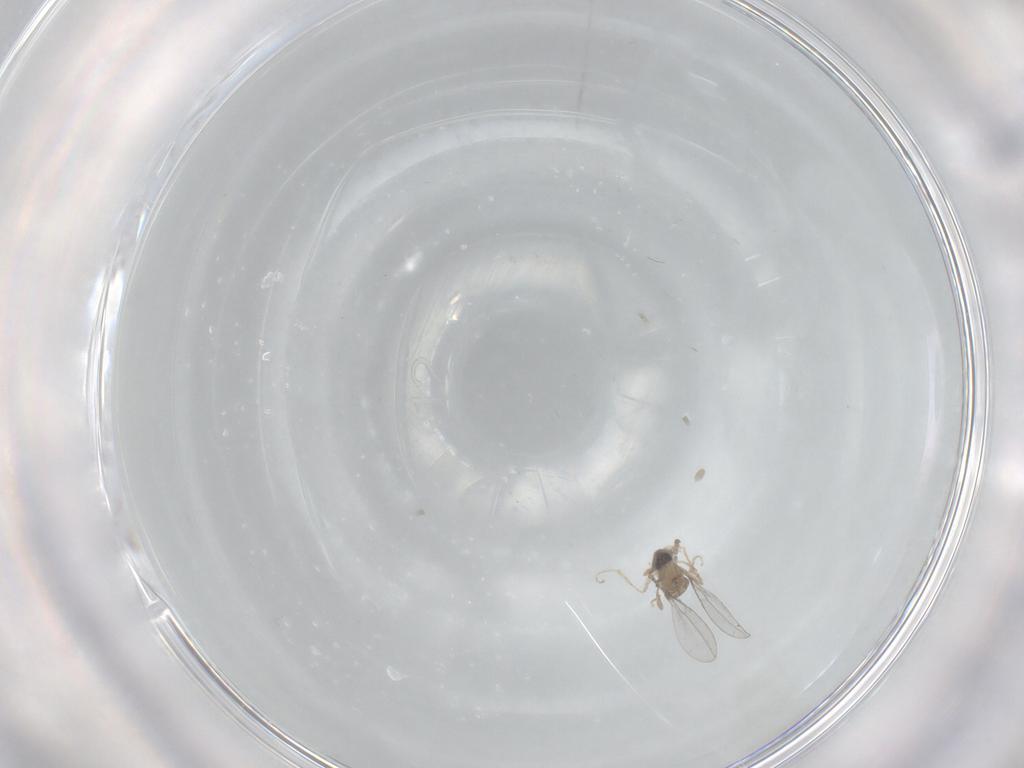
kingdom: Animalia
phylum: Arthropoda
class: Insecta
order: Diptera
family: Cecidomyiidae
